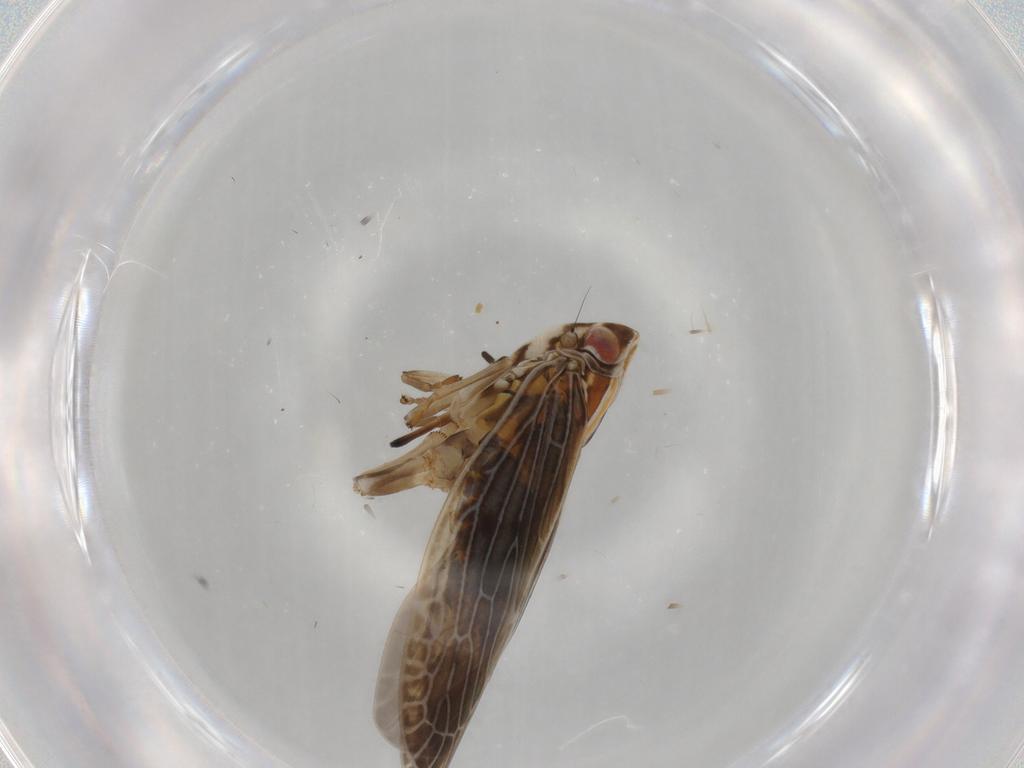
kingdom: Animalia
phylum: Arthropoda
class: Insecta
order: Hemiptera
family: Achilidae
